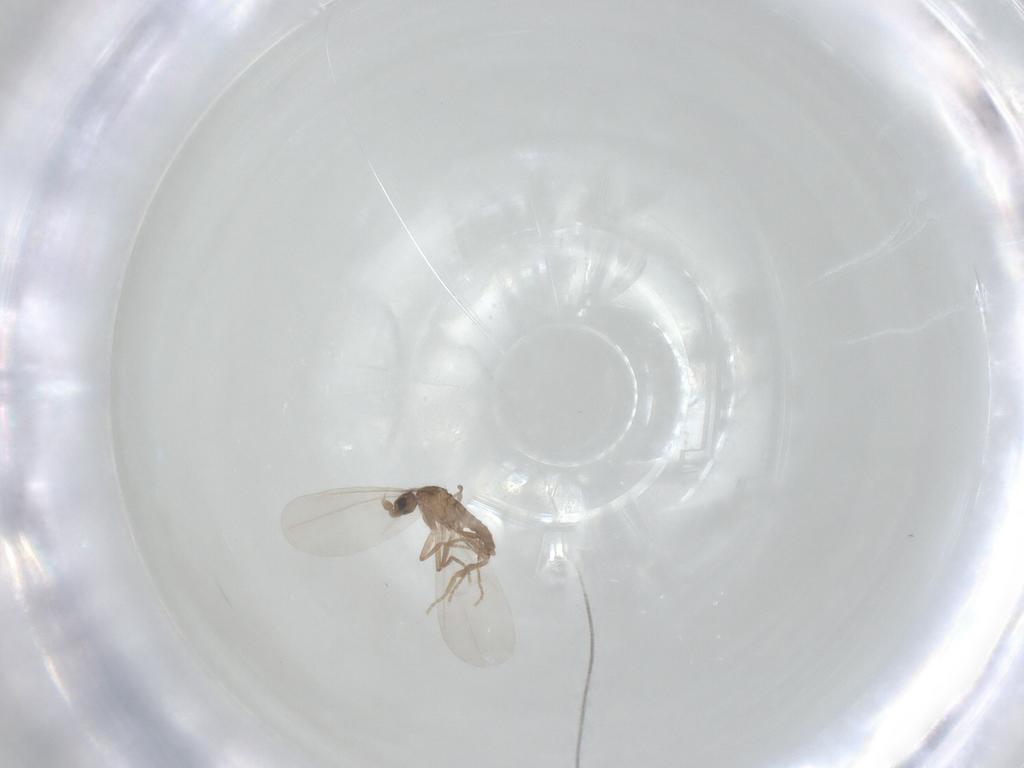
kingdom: Animalia
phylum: Arthropoda
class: Insecta
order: Diptera
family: Phoridae
